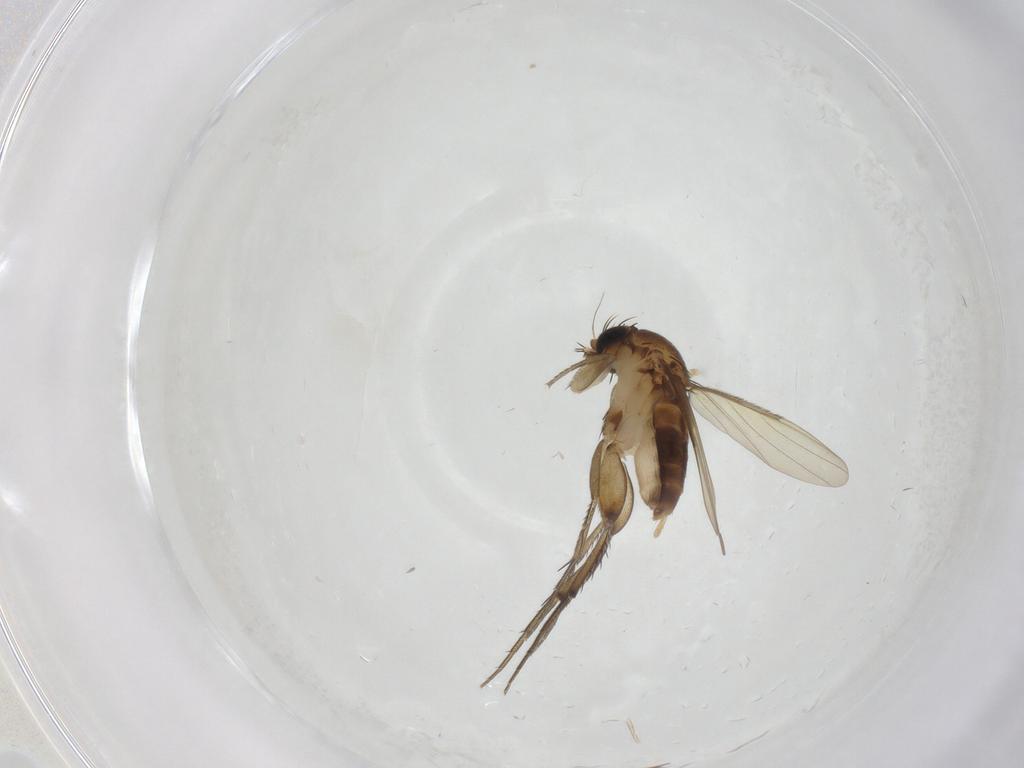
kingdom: Animalia
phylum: Arthropoda
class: Insecta
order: Diptera
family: Phoridae
